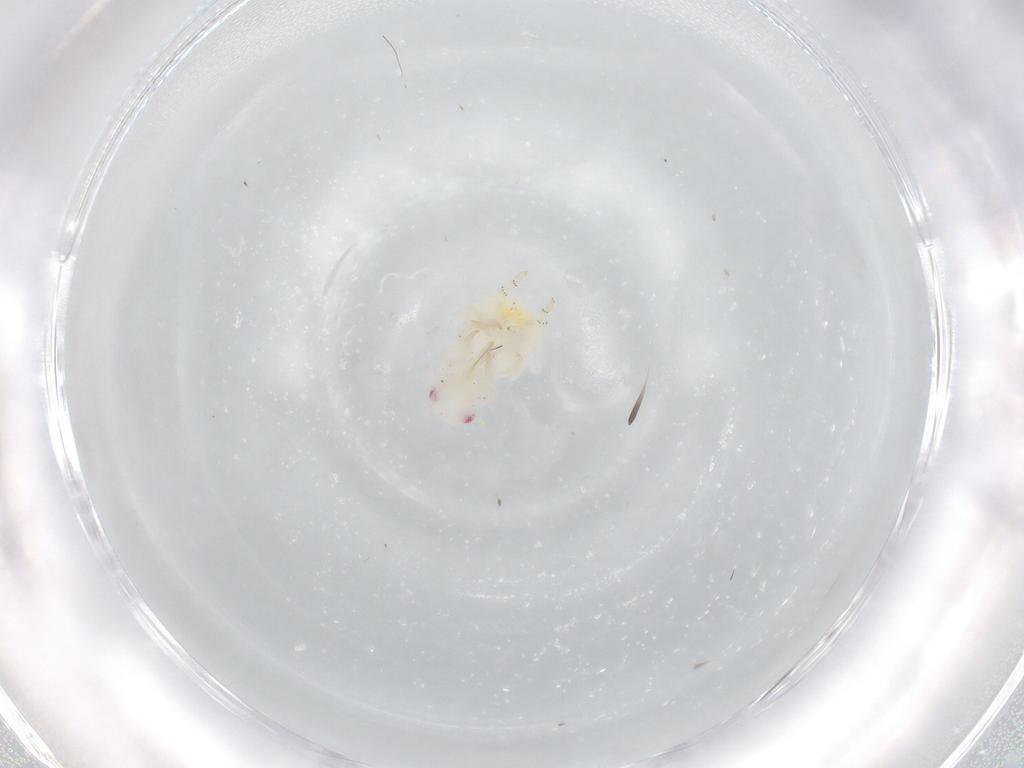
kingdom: Animalia
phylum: Arthropoda
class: Insecta
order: Hemiptera
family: Flatidae
